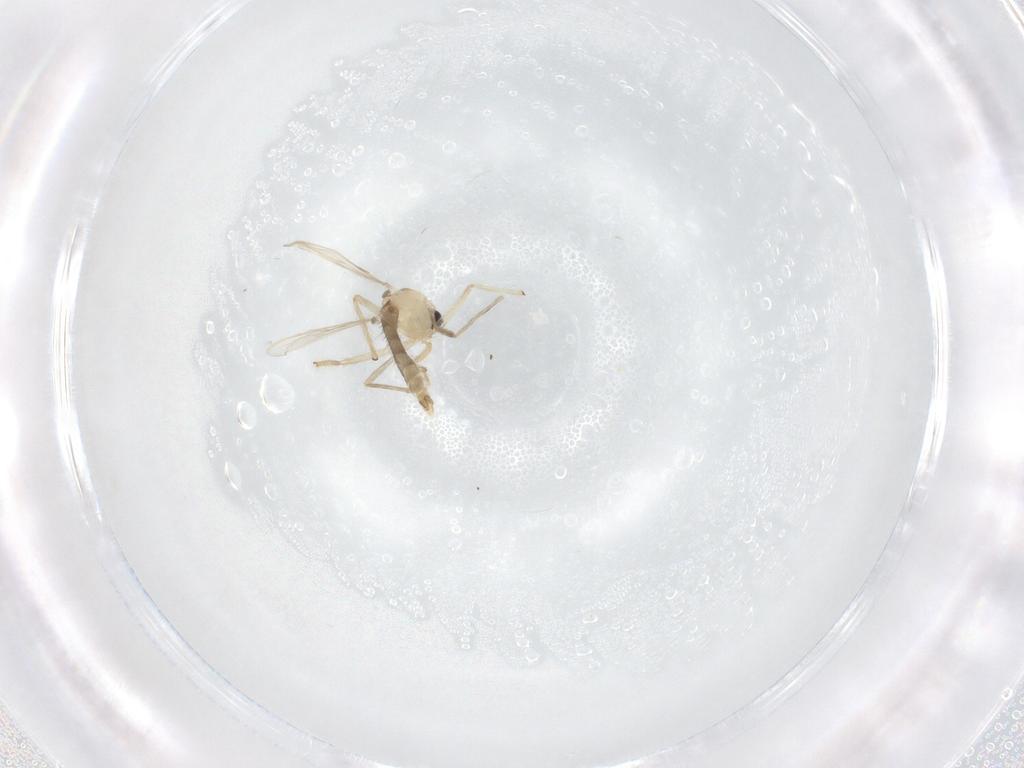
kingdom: Animalia
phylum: Arthropoda
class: Insecta
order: Diptera
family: Chironomidae
